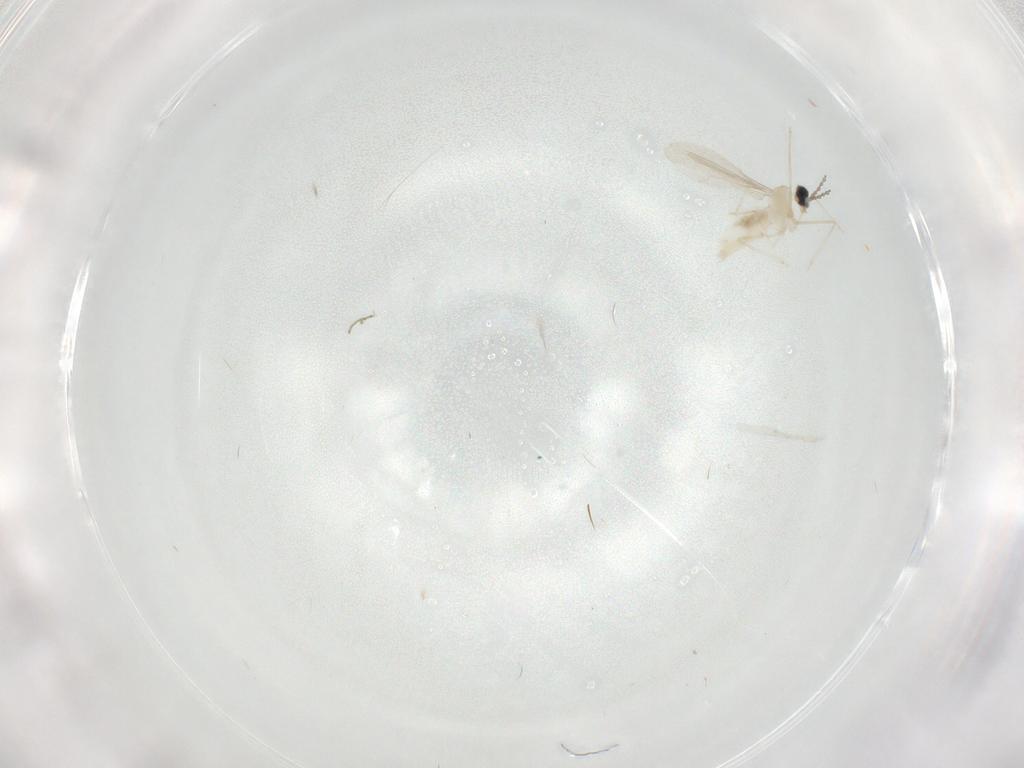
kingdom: Animalia
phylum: Arthropoda
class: Insecta
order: Diptera
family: Cecidomyiidae
